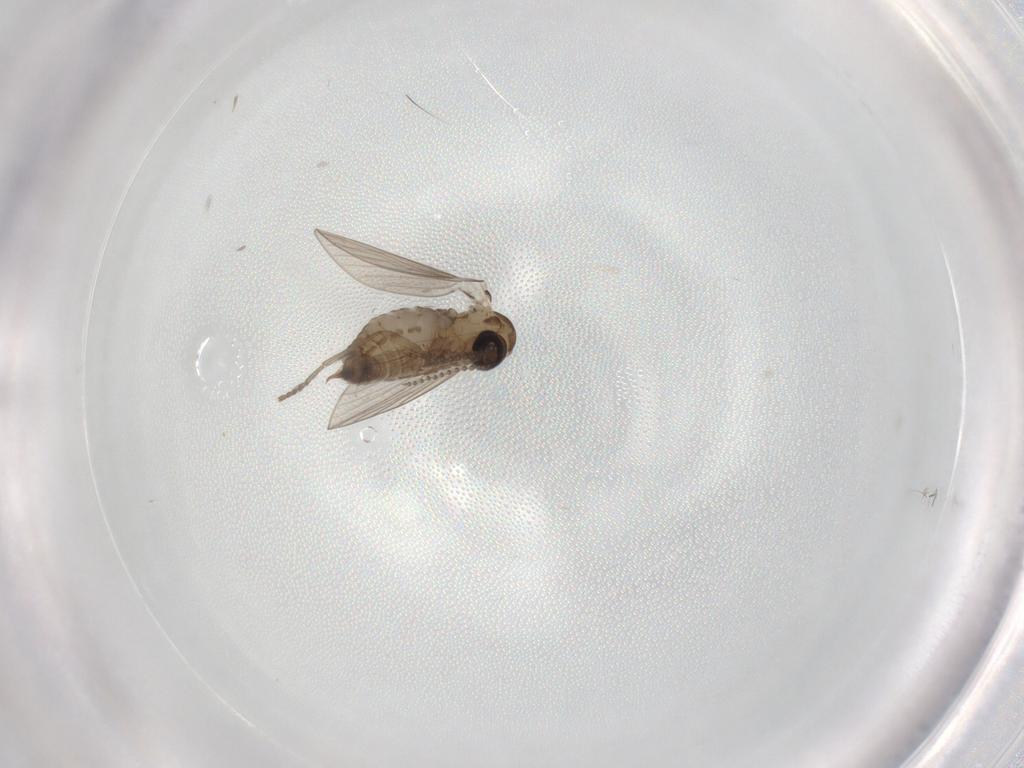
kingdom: Animalia
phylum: Arthropoda
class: Insecta
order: Diptera
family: Psychodidae
